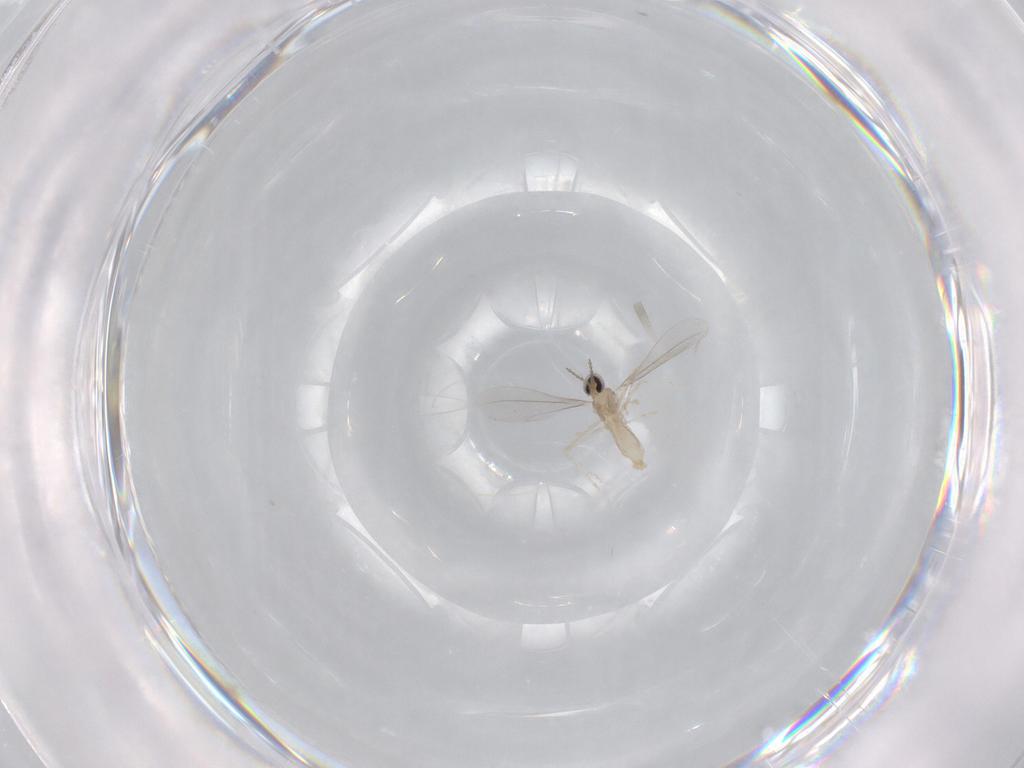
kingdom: Animalia
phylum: Arthropoda
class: Insecta
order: Diptera
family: Cecidomyiidae
